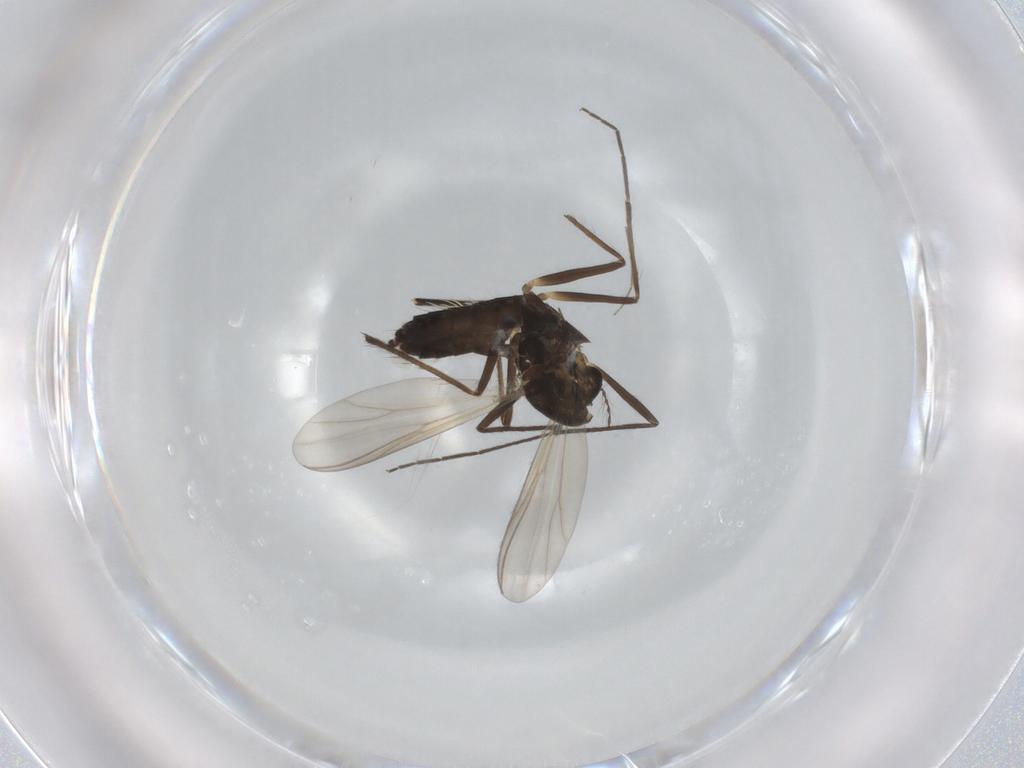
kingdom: Animalia
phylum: Arthropoda
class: Insecta
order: Diptera
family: Chironomidae
